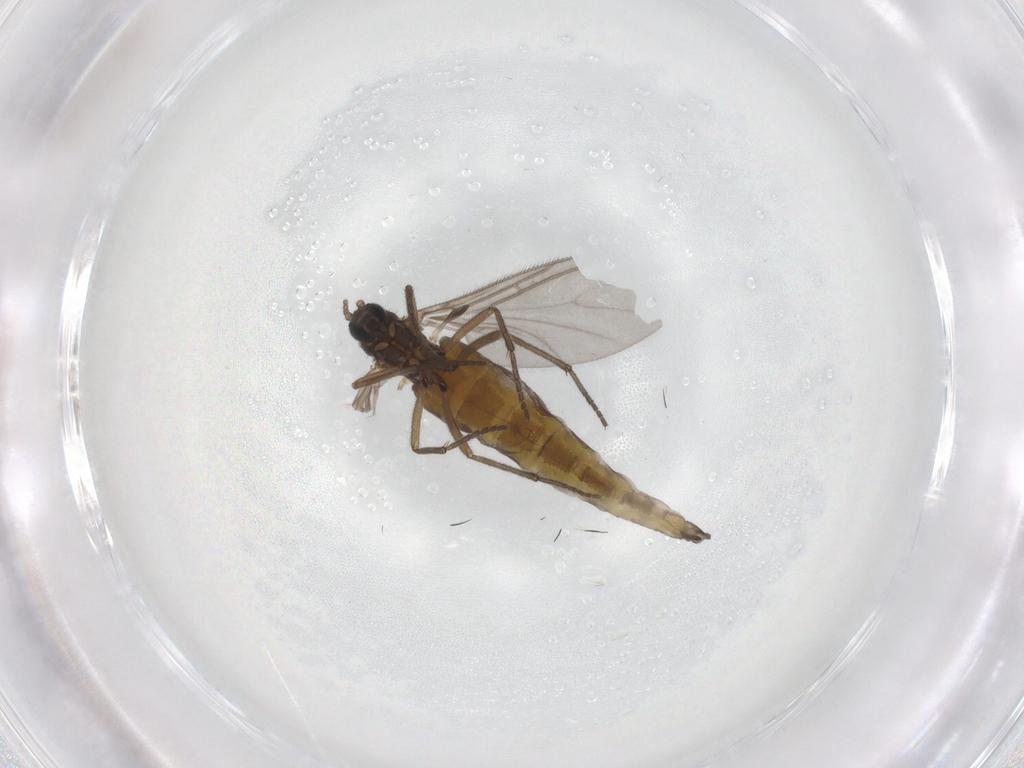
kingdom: Animalia
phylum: Arthropoda
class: Insecta
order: Diptera
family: Sciaridae
